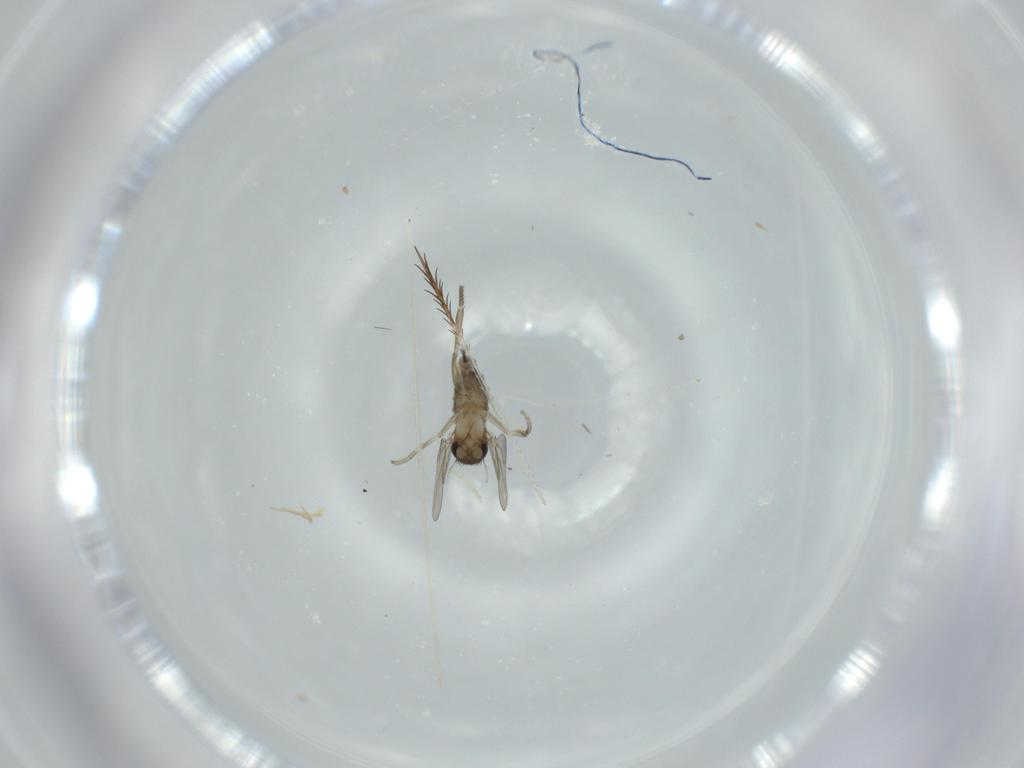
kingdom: Animalia
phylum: Arthropoda
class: Insecta
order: Diptera
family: Phoridae
